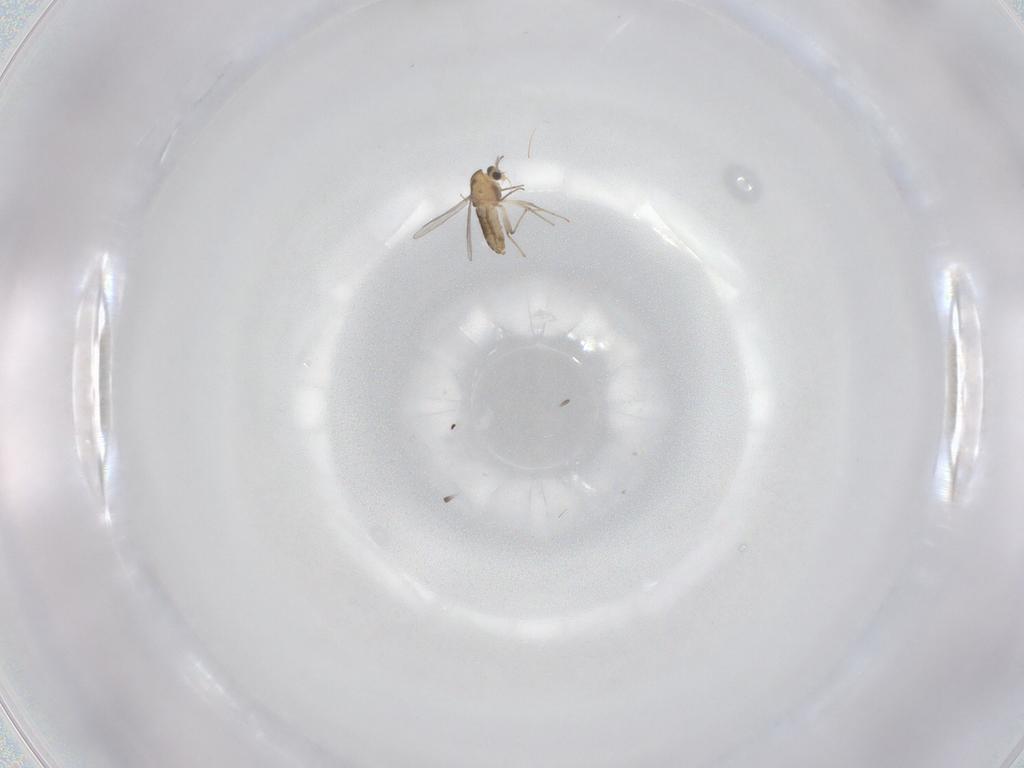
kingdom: Animalia
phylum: Arthropoda
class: Insecta
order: Diptera
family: Chironomidae
